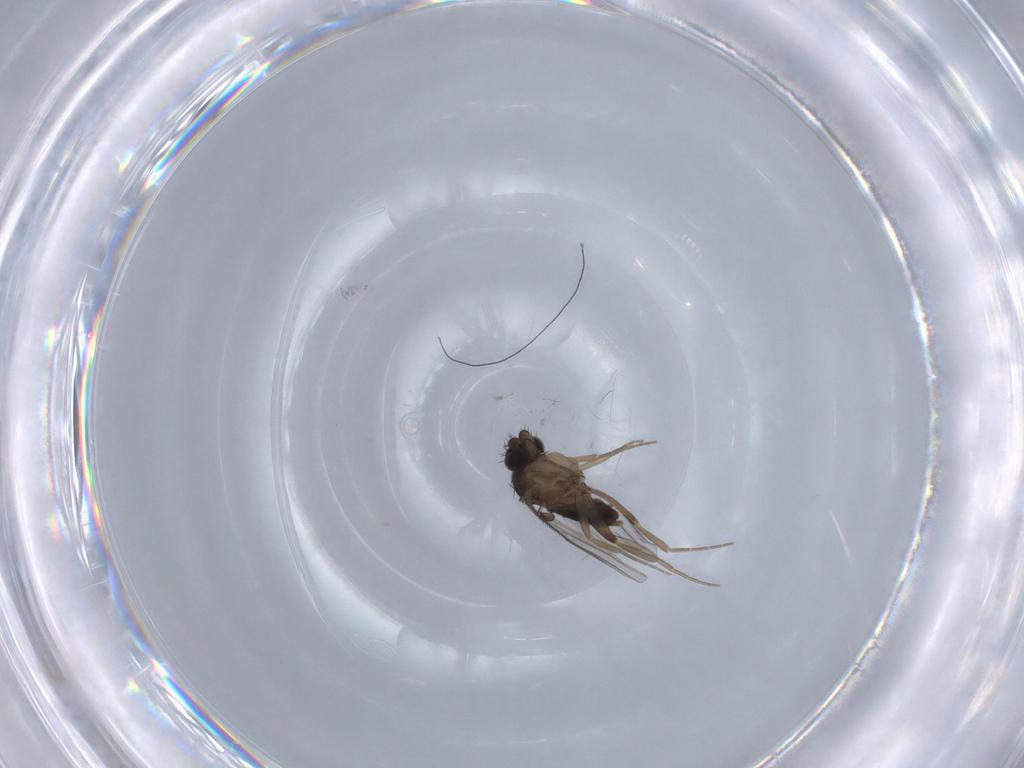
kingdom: Animalia
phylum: Arthropoda
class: Insecta
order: Diptera
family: Phoridae
